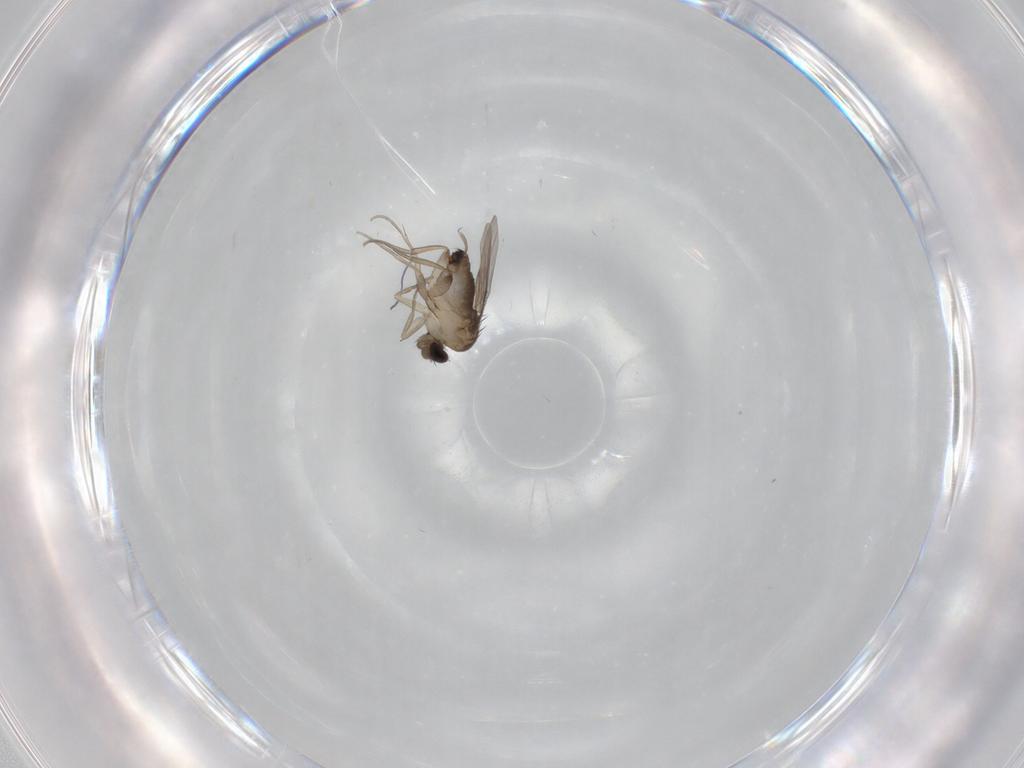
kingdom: Animalia
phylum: Arthropoda
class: Insecta
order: Diptera
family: Phoridae
